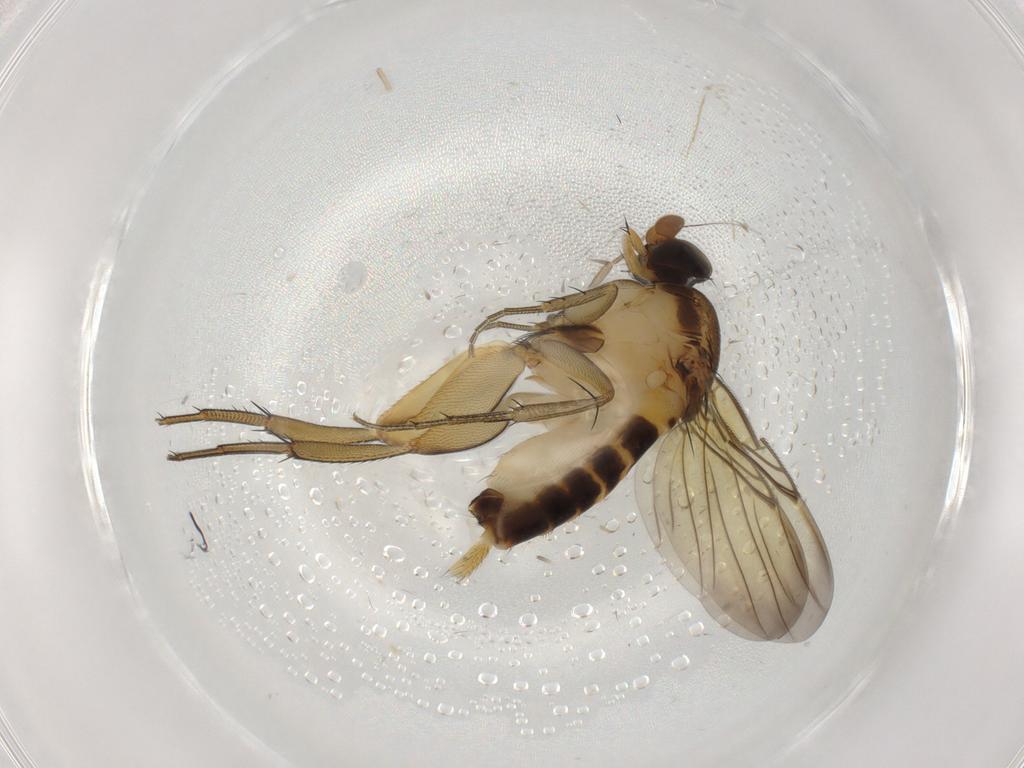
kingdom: Animalia
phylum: Arthropoda
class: Insecta
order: Diptera
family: Phoridae
